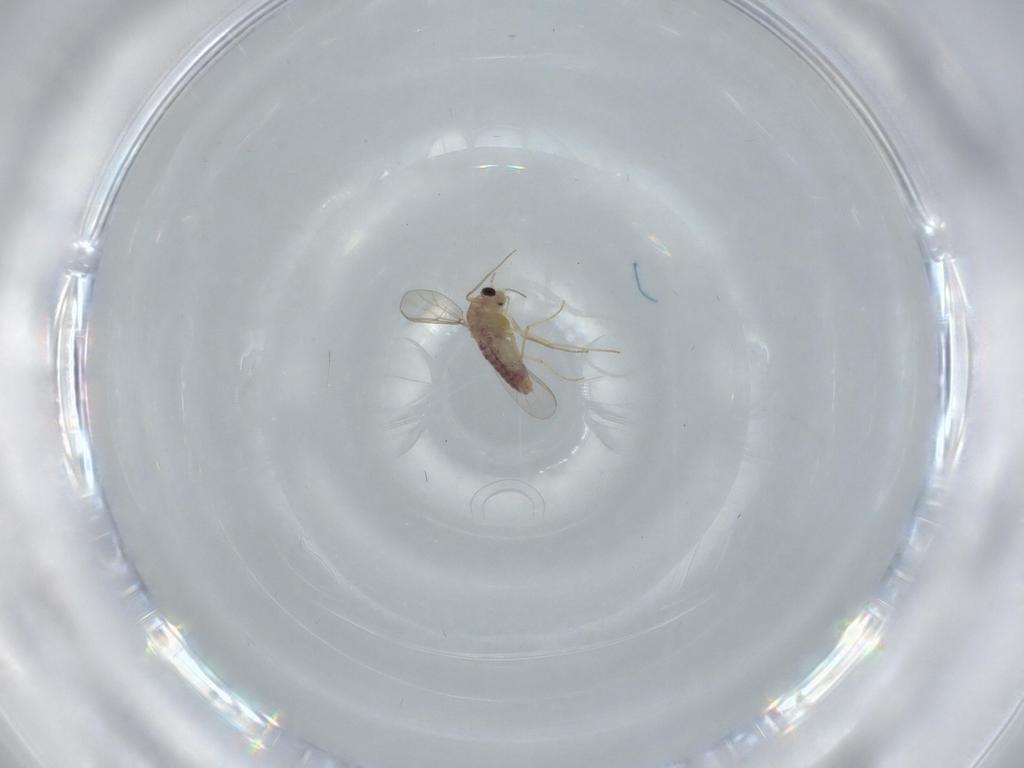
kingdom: Animalia
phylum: Arthropoda
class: Insecta
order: Diptera
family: Chironomidae
